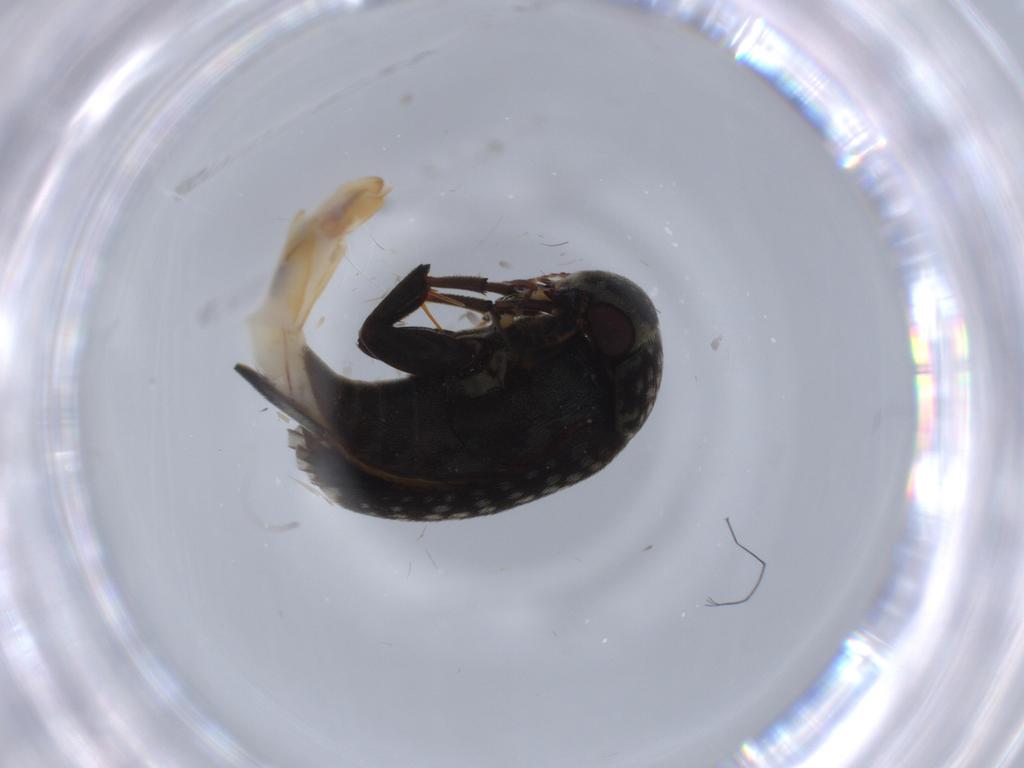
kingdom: Animalia
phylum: Arthropoda
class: Insecta
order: Coleoptera
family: Mordellidae
